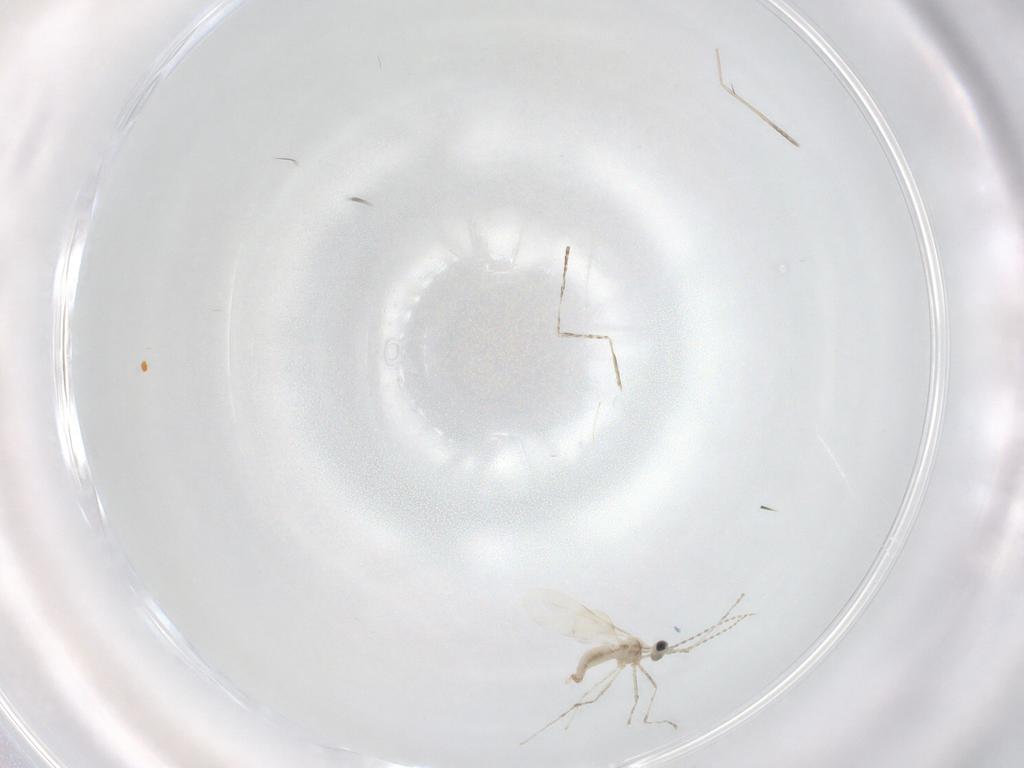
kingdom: Animalia
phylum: Arthropoda
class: Insecta
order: Diptera
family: Cecidomyiidae
